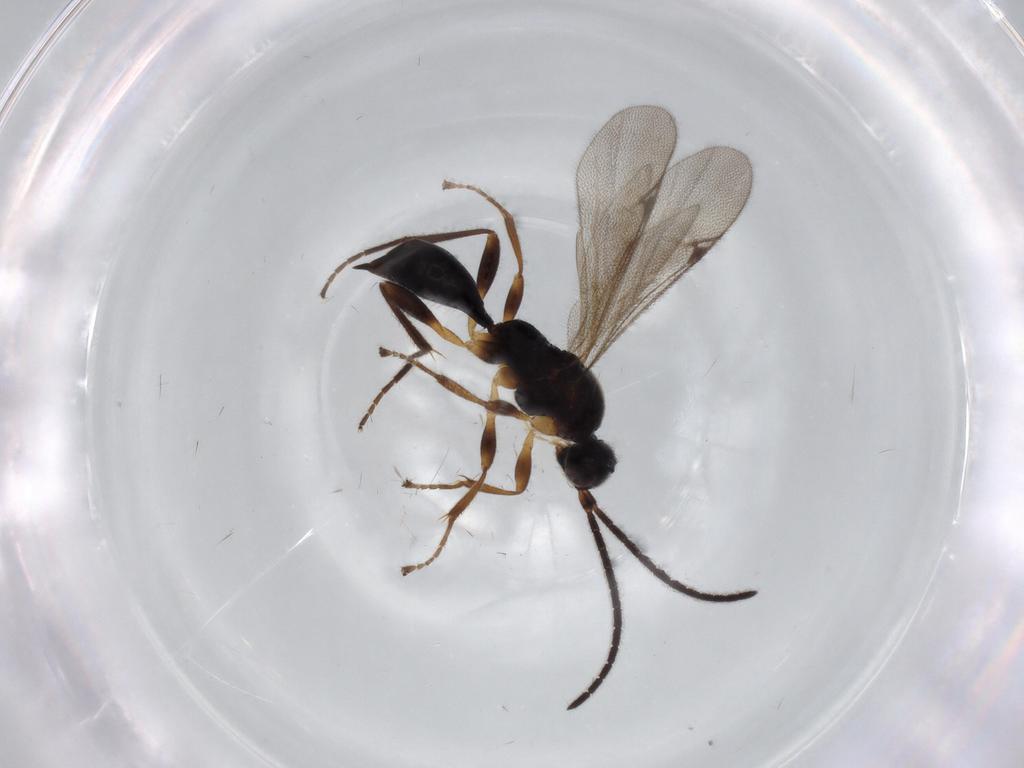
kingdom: Animalia
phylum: Arthropoda
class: Insecta
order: Hymenoptera
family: Proctotrupidae
